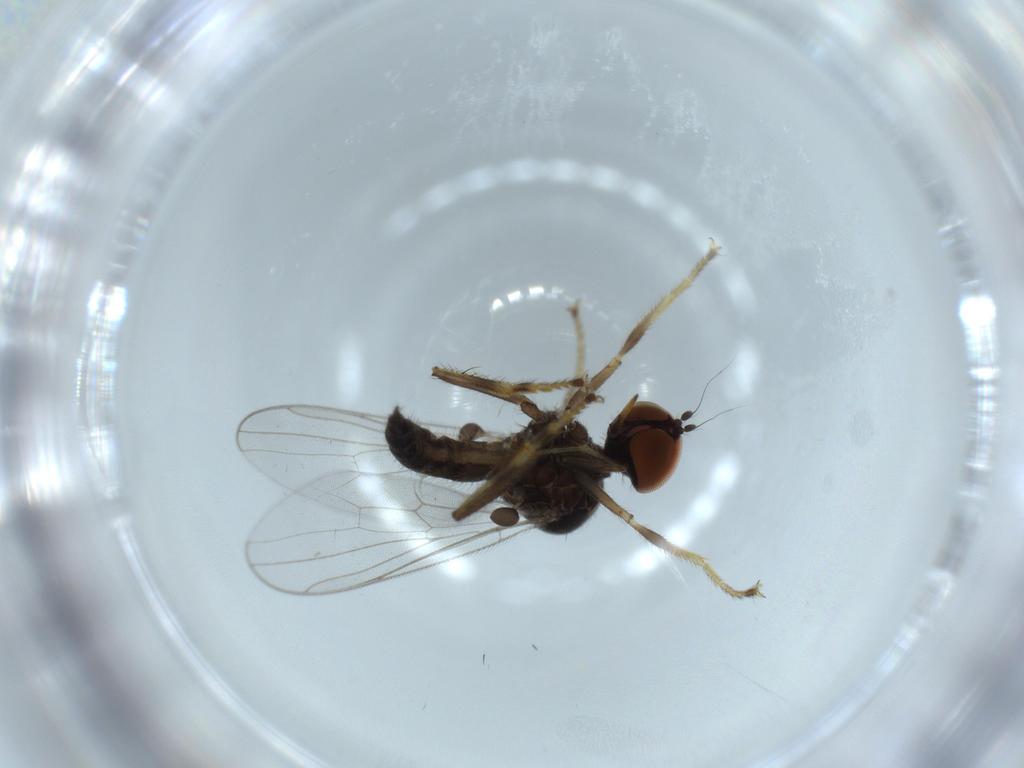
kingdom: Animalia
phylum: Arthropoda
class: Insecta
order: Diptera
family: Hybotidae
